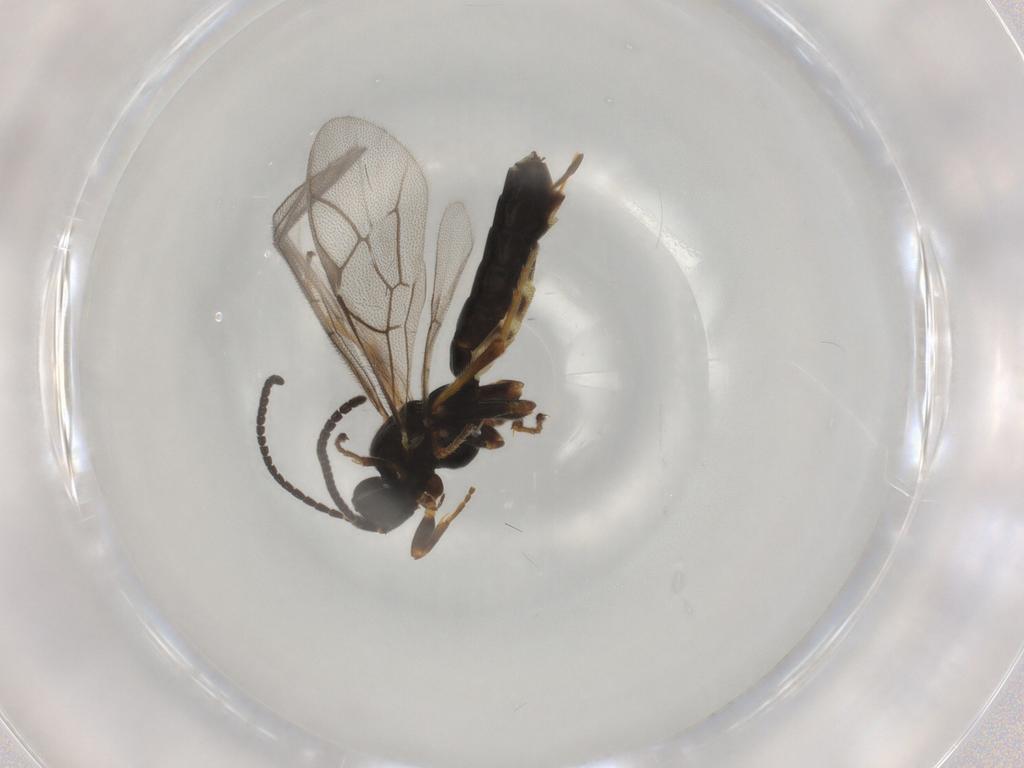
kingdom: Animalia
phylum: Arthropoda
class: Insecta
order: Hymenoptera
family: Ichneumonidae
